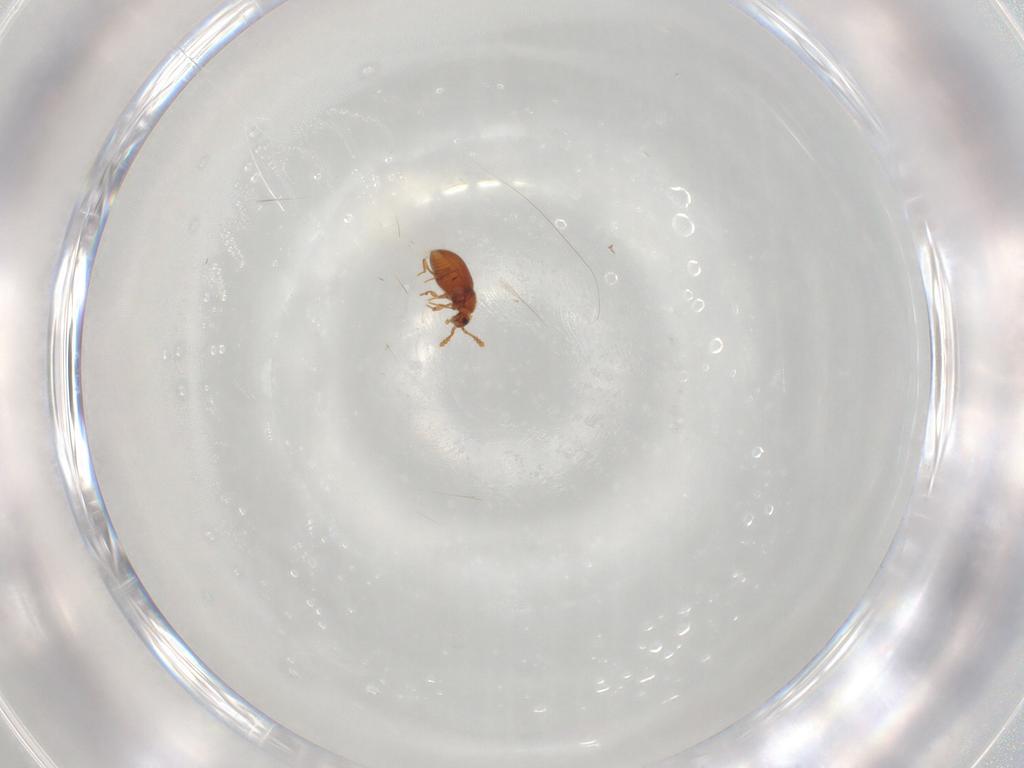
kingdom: Animalia
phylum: Arthropoda
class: Insecta
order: Coleoptera
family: Staphylinidae
